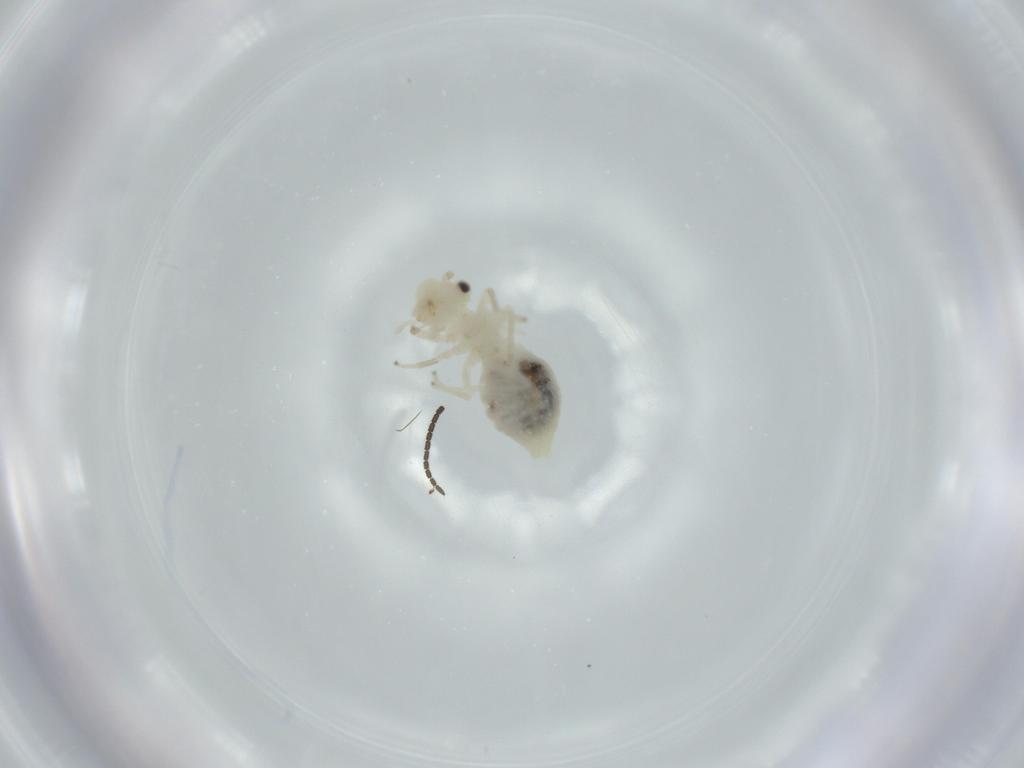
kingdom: Animalia
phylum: Arthropoda
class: Insecta
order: Psocodea
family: Caeciliusidae
